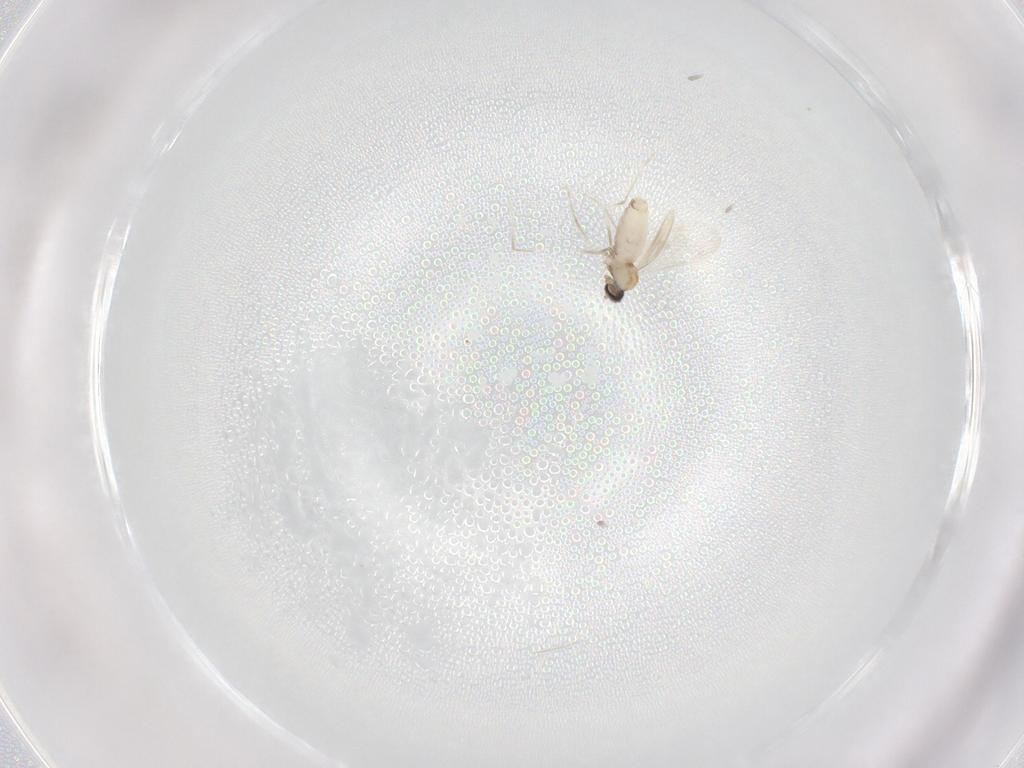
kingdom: Animalia
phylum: Arthropoda
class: Insecta
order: Diptera
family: Cecidomyiidae
